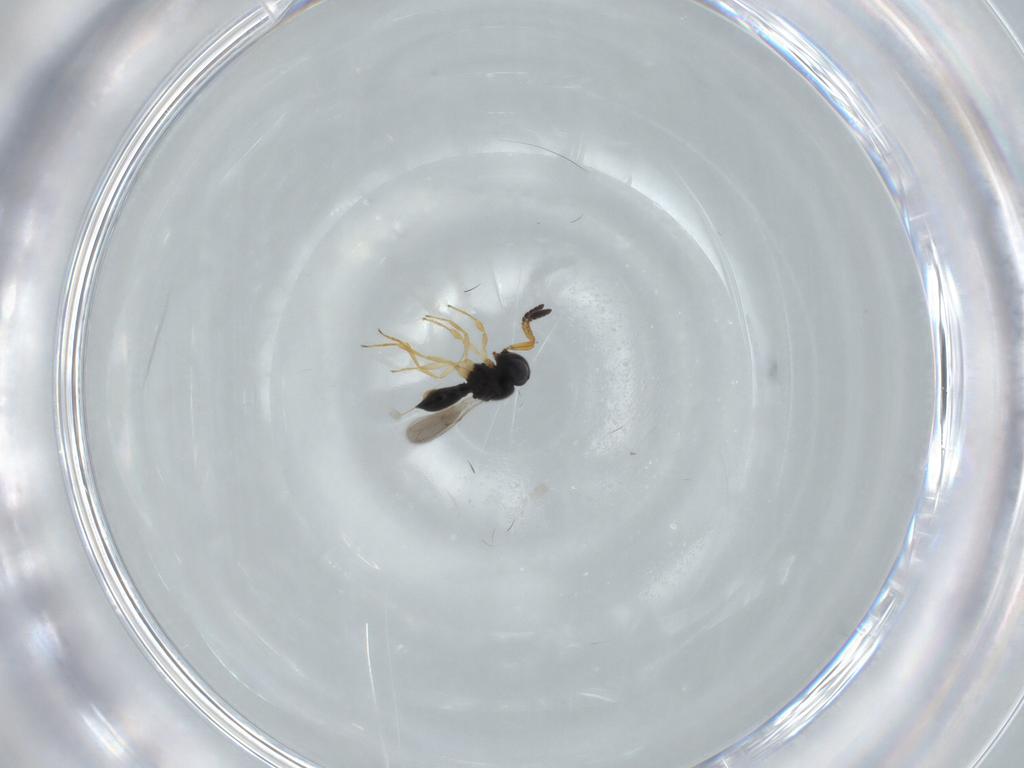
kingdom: Animalia
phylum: Arthropoda
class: Insecta
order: Hymenoptera
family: Scelionidae
